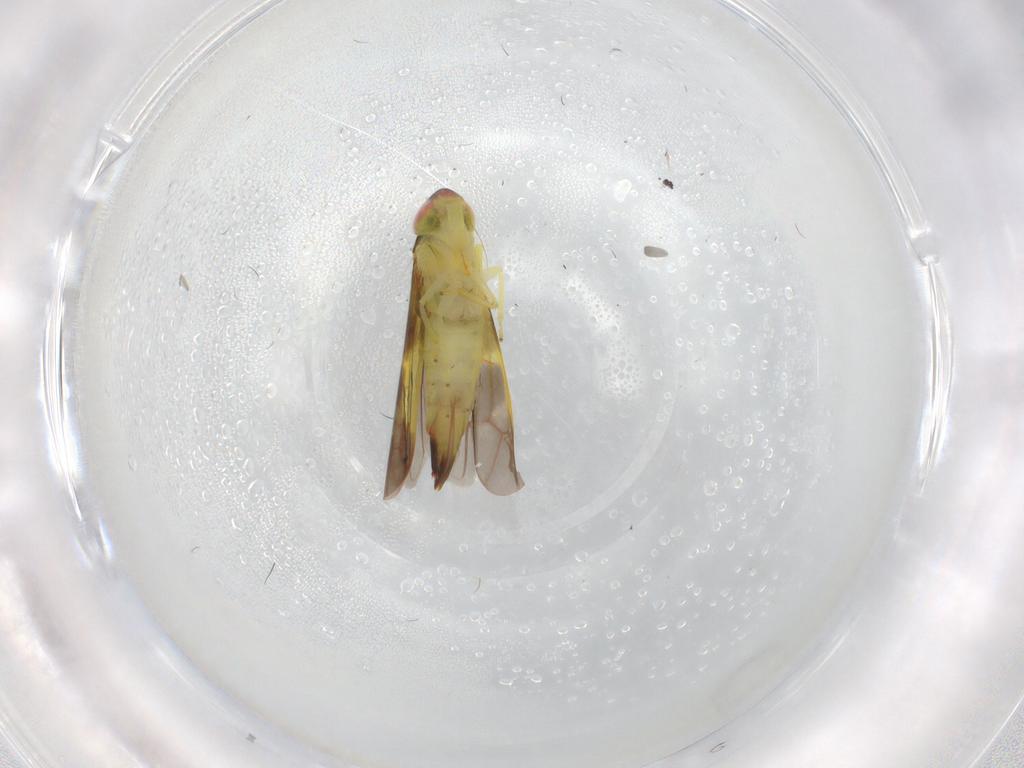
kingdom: Animalia
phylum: Arthropoda
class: Insecta
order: Hemiptera
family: Cicadellidae
